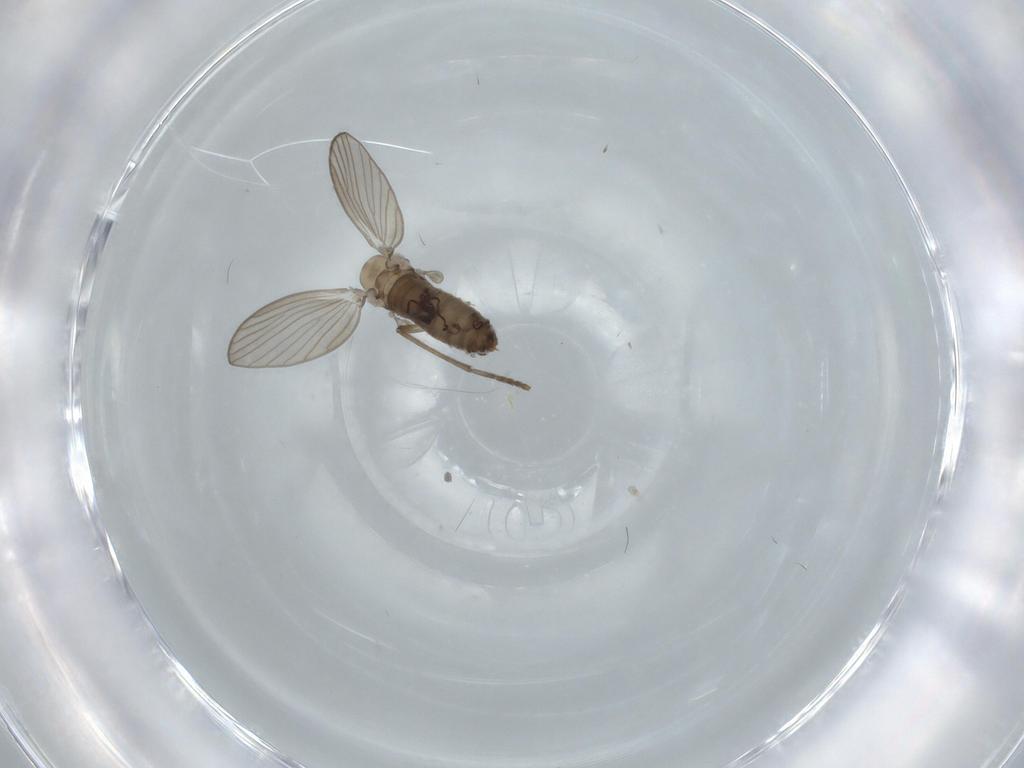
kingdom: Animalia
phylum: Arthropoda
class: Insecta
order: Diptera
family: Psychodidae
